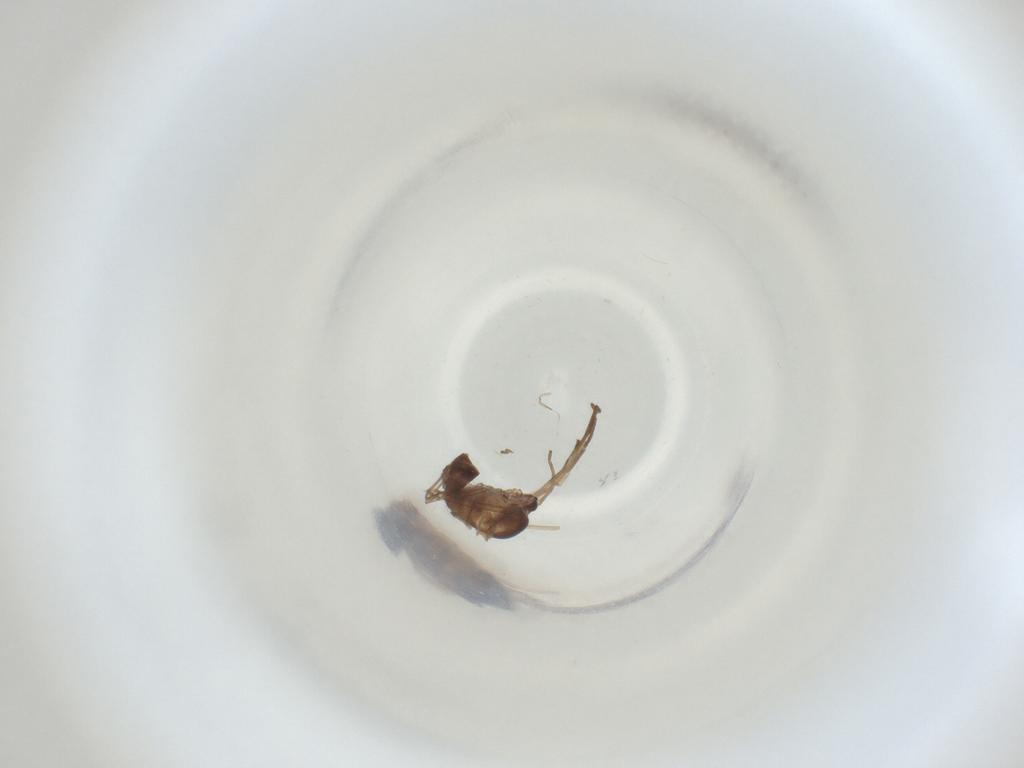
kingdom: Animalia
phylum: Arthropoda
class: Insecta
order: Diptera
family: Cecidomyiidae
